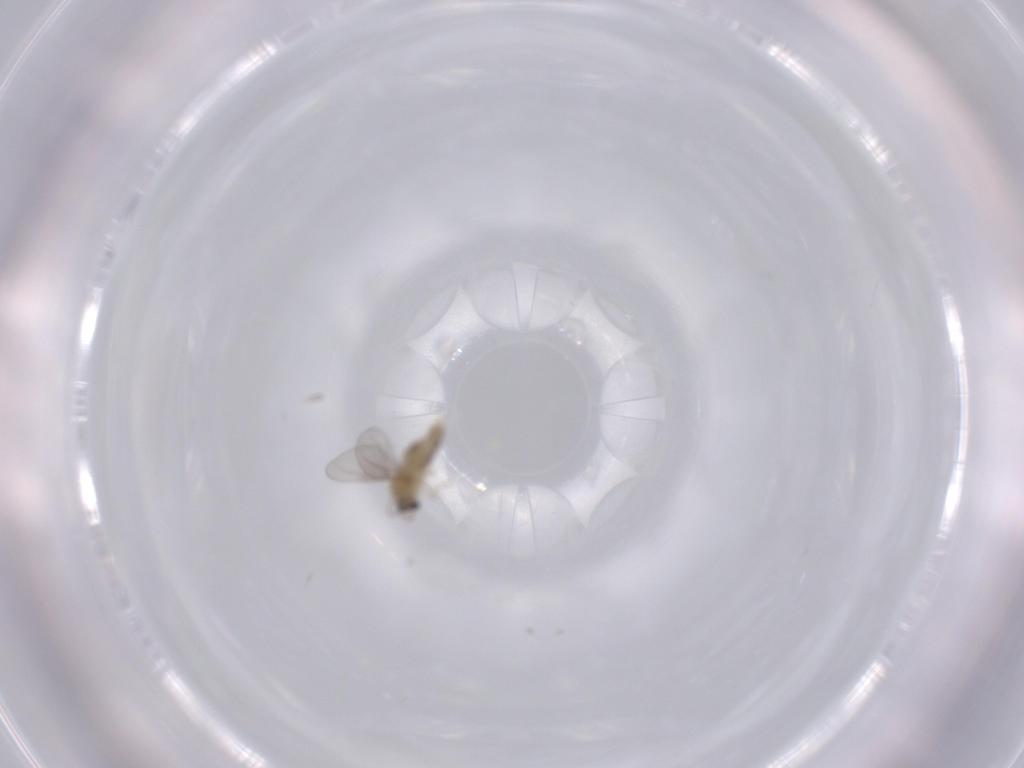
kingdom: Animalia
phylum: Arthropoda
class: Insecta
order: Diptera
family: Cecidomyiidae
